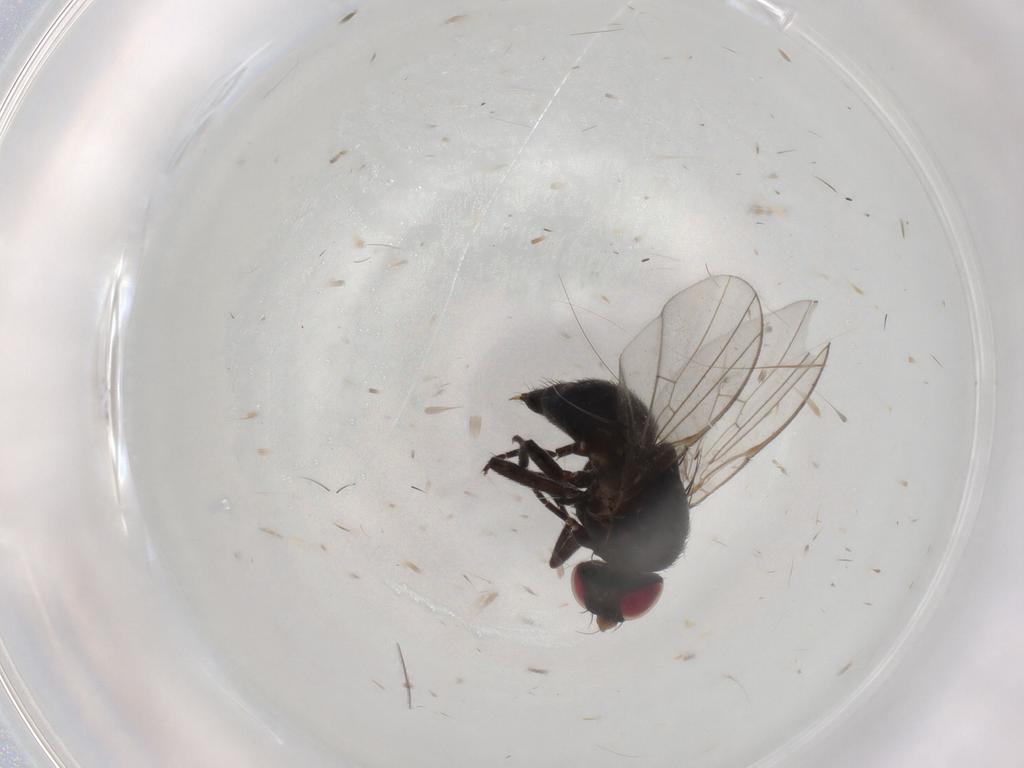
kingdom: Animalia
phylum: Arthropoda
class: Insecta
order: Diptera
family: Agromyzidae
